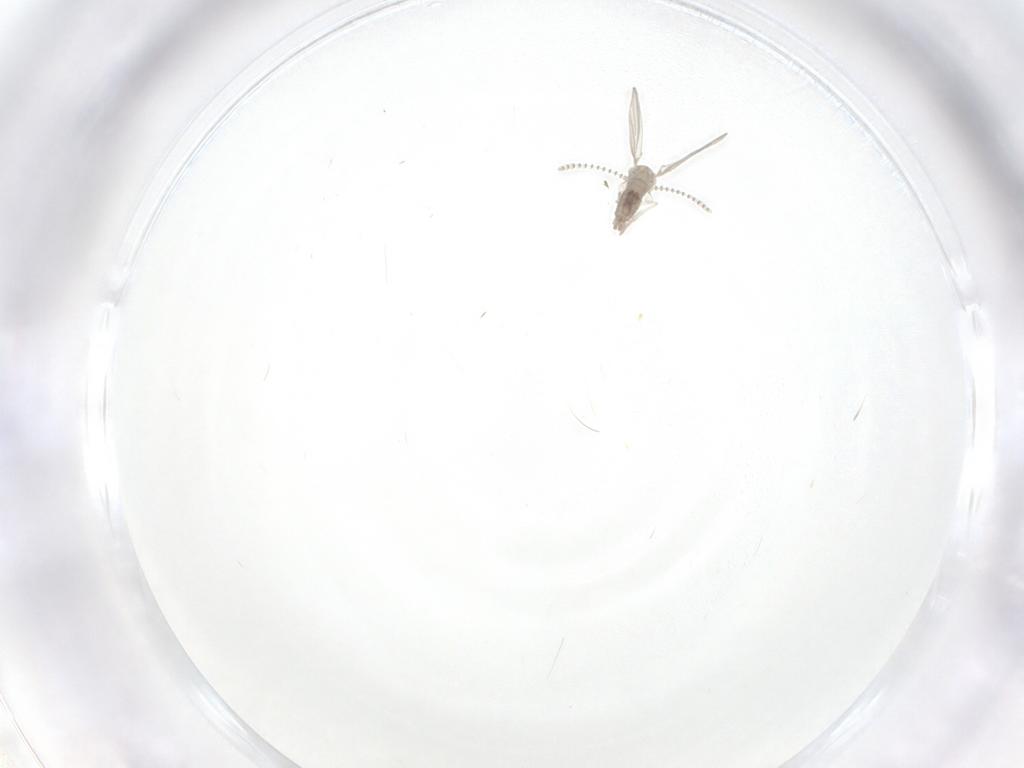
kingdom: Animalia
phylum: Arthropoda
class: Insecta
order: Diptera
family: Psychodidae
